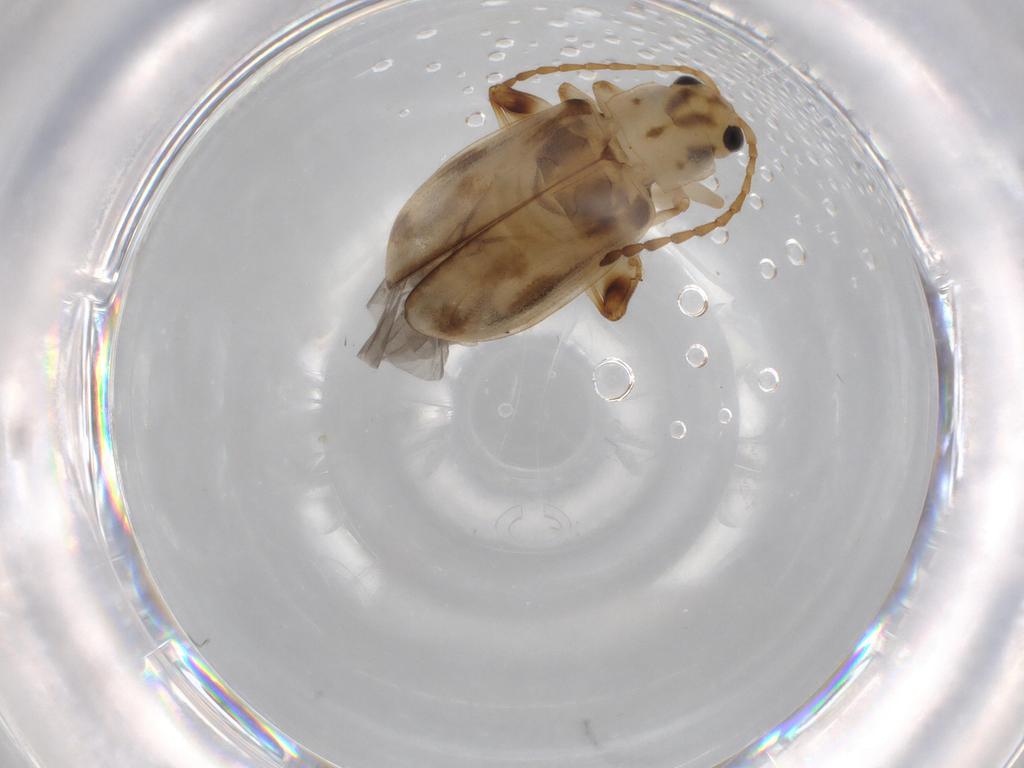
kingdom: Animalia
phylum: Arthropoda
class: Insecta
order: Coleoptera
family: Chrysomelidae
